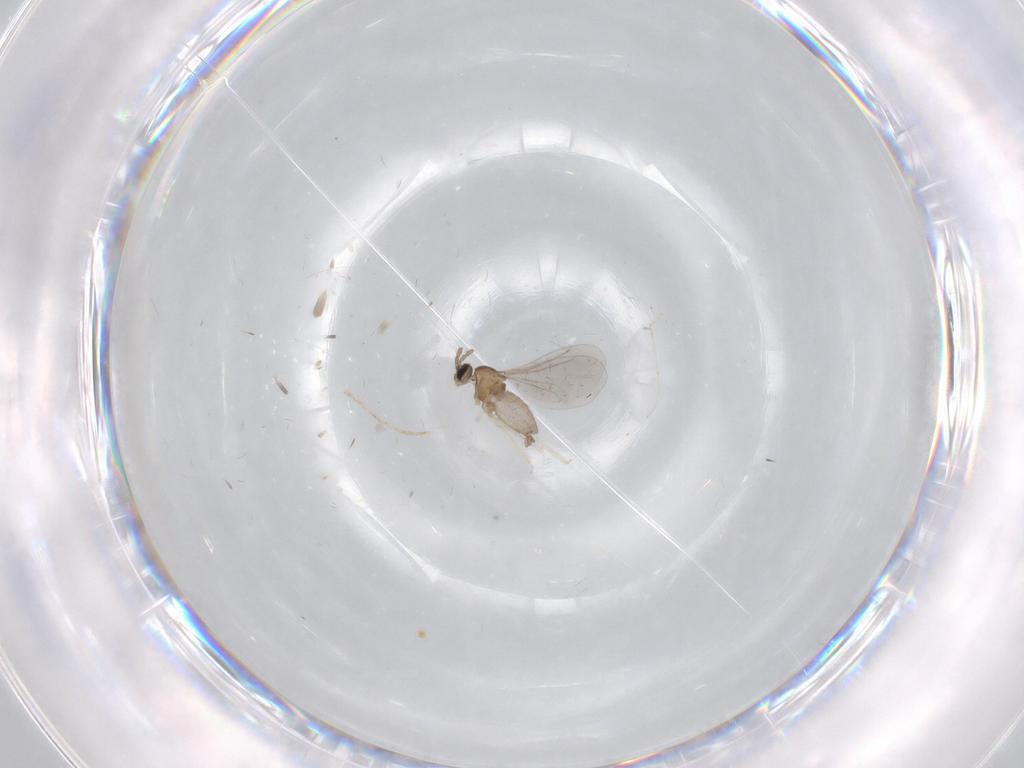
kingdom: Animalia
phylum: Arthropoda
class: Insecta
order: Diptera
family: Cecidomyiidae
